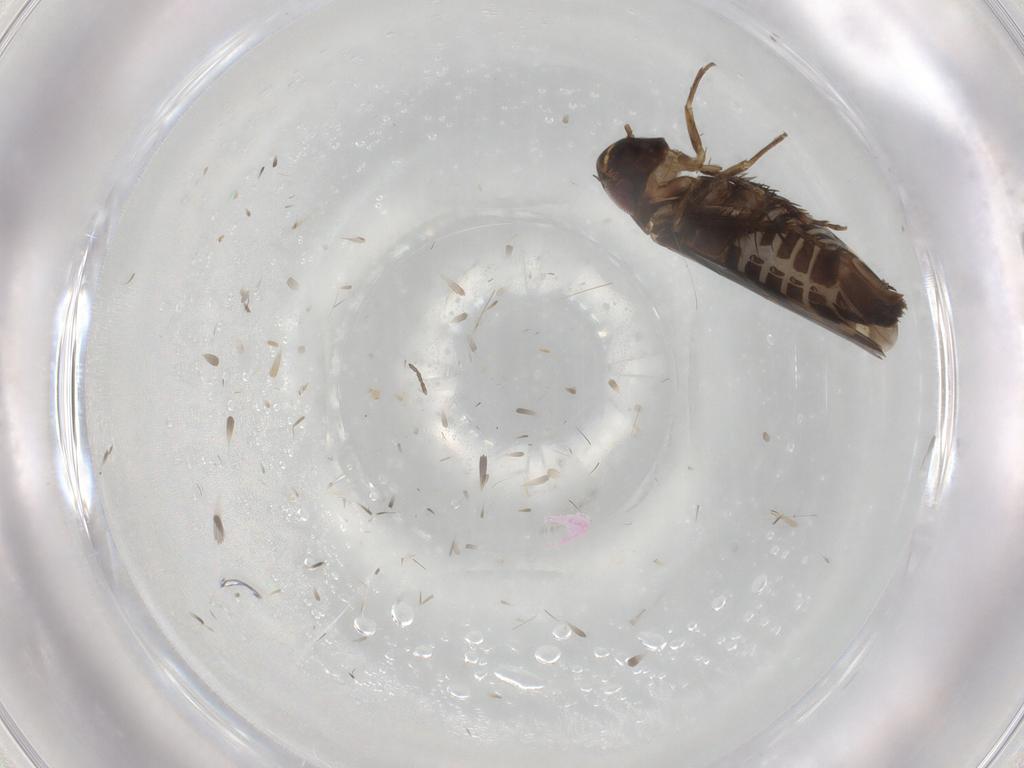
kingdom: Animalia
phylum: Arthropoda
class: Insecta
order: Hemiptera
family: Cicadellidae
